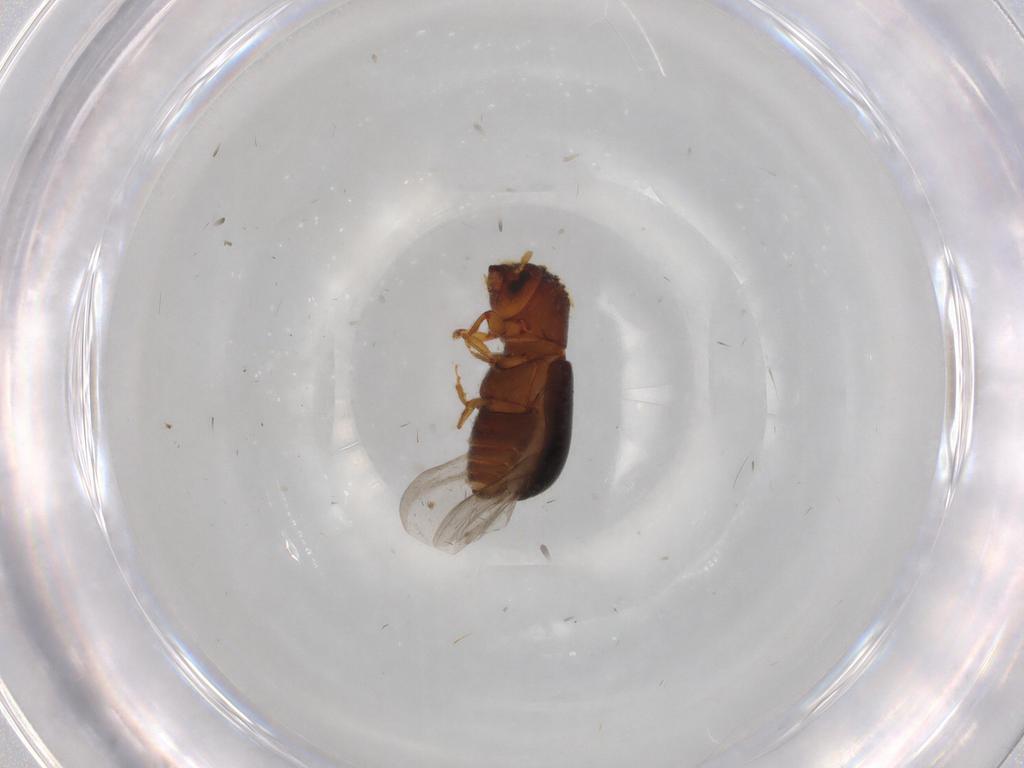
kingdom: Animalia
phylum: Arthropoda
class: Insecta
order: Coleoptera
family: Curculionidae
